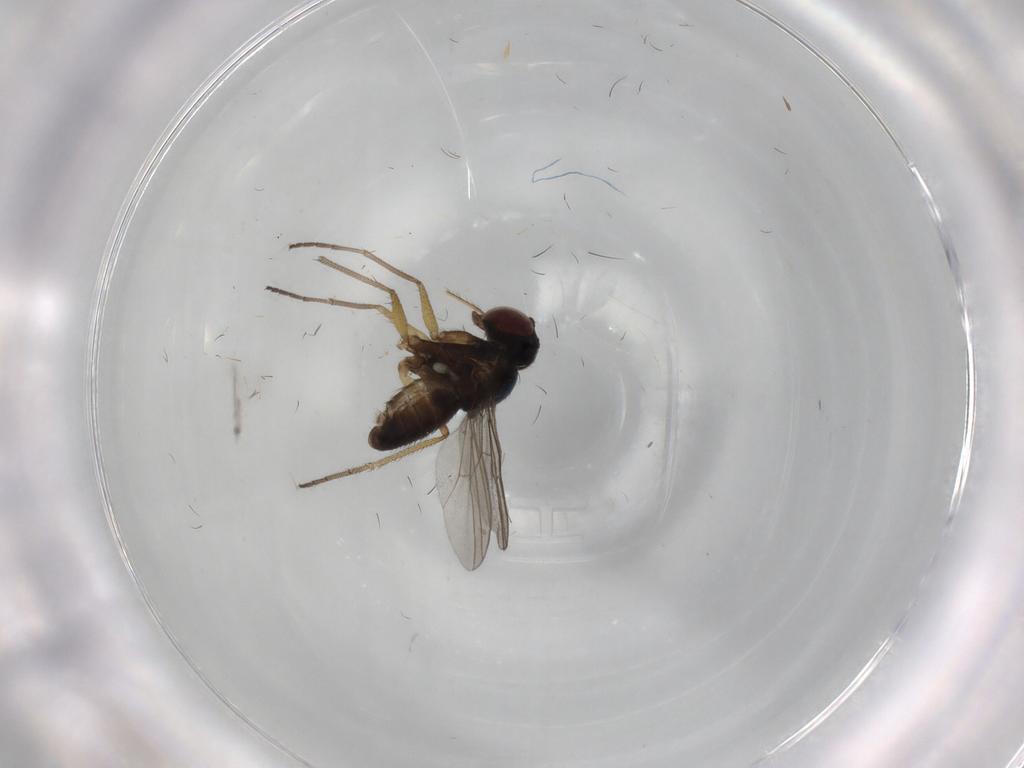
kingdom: Animalia
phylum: Arthropoda
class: Insecta
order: Diptera
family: Dolichopodidae
